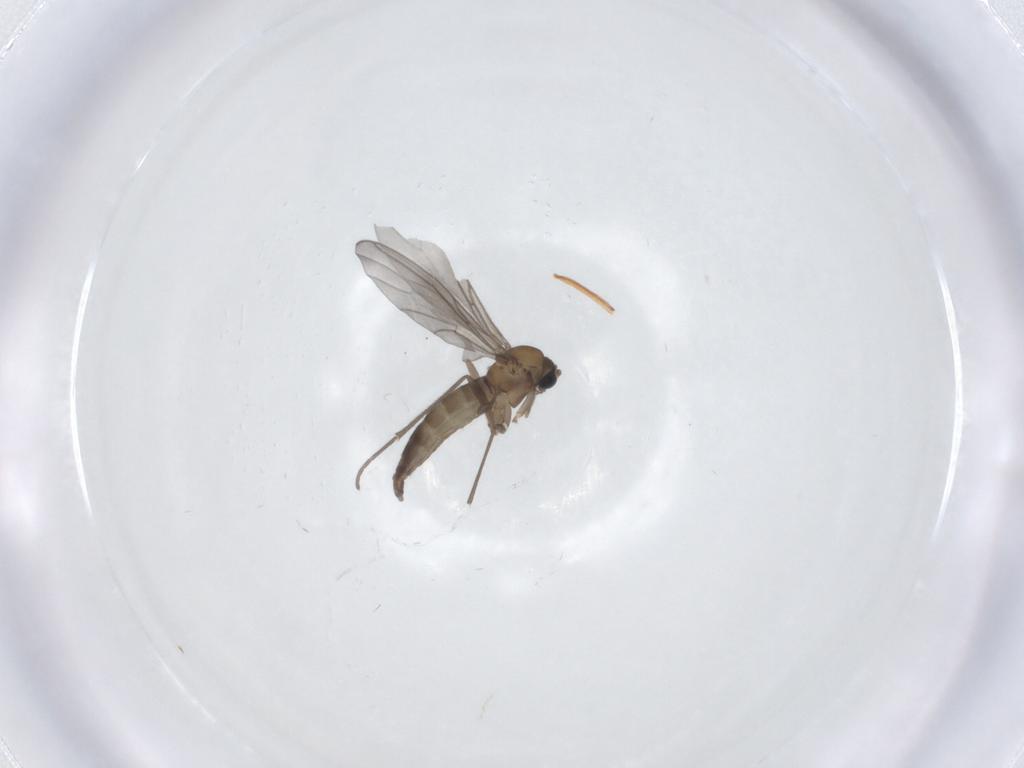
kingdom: Animalia
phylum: Arthropoda
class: Insecta
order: Diptera
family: Sciaridae
